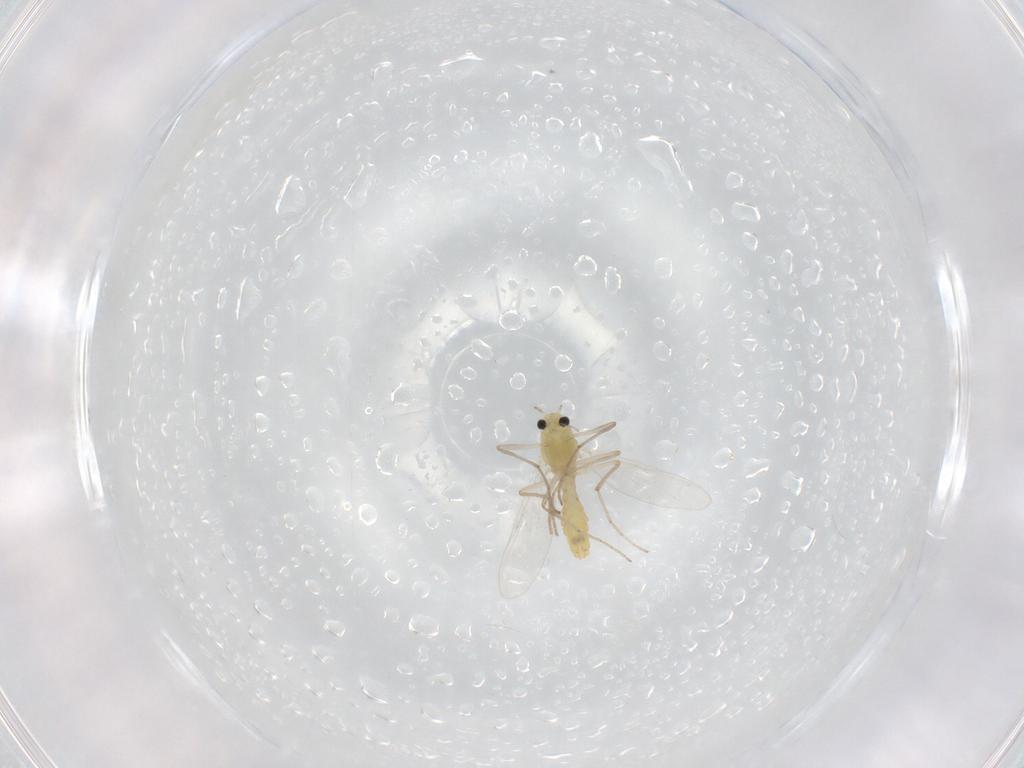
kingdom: Animalia
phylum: Arthropoda
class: Insecta
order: Diptera
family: Chironomidae
